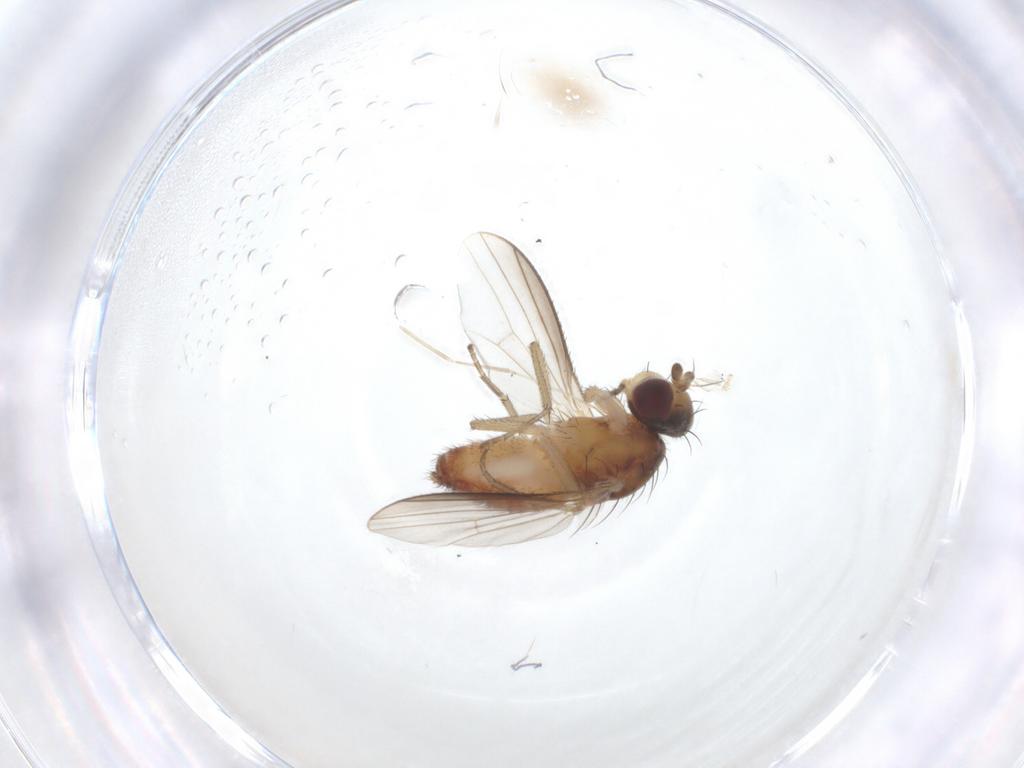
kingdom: Animalia
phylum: Arthropoda
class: Insecta
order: Diptera
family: Heleomyzidae
